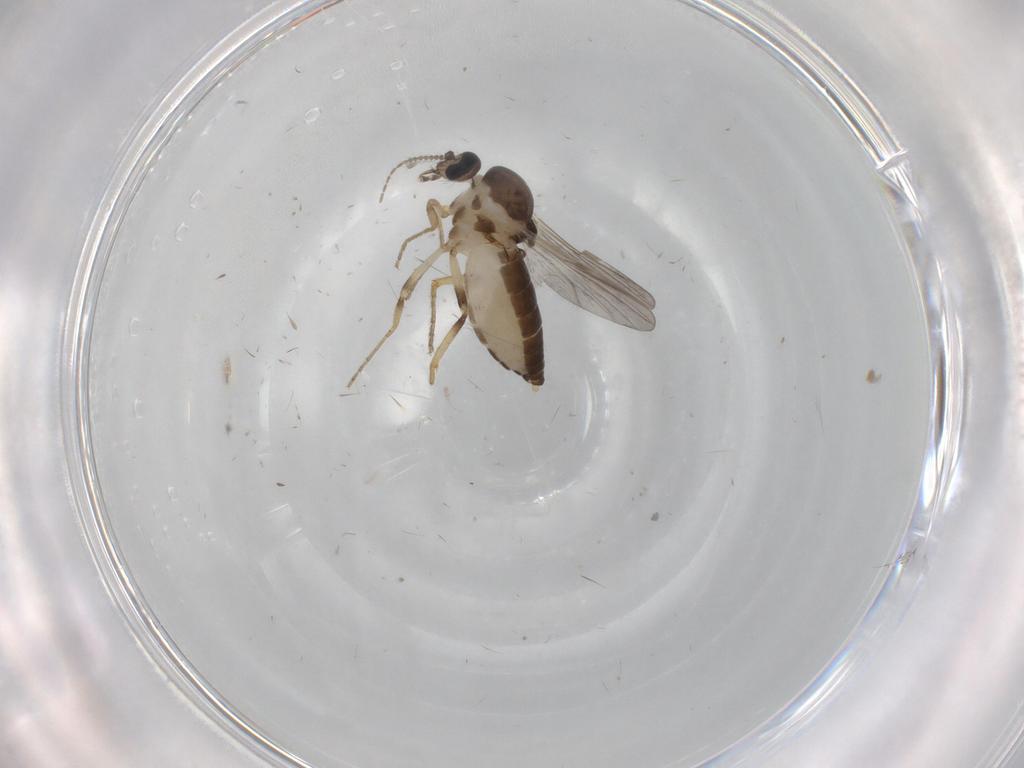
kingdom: Animalia
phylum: Arthropoda
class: Insecta
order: Diptera
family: Ceratopogonidae
